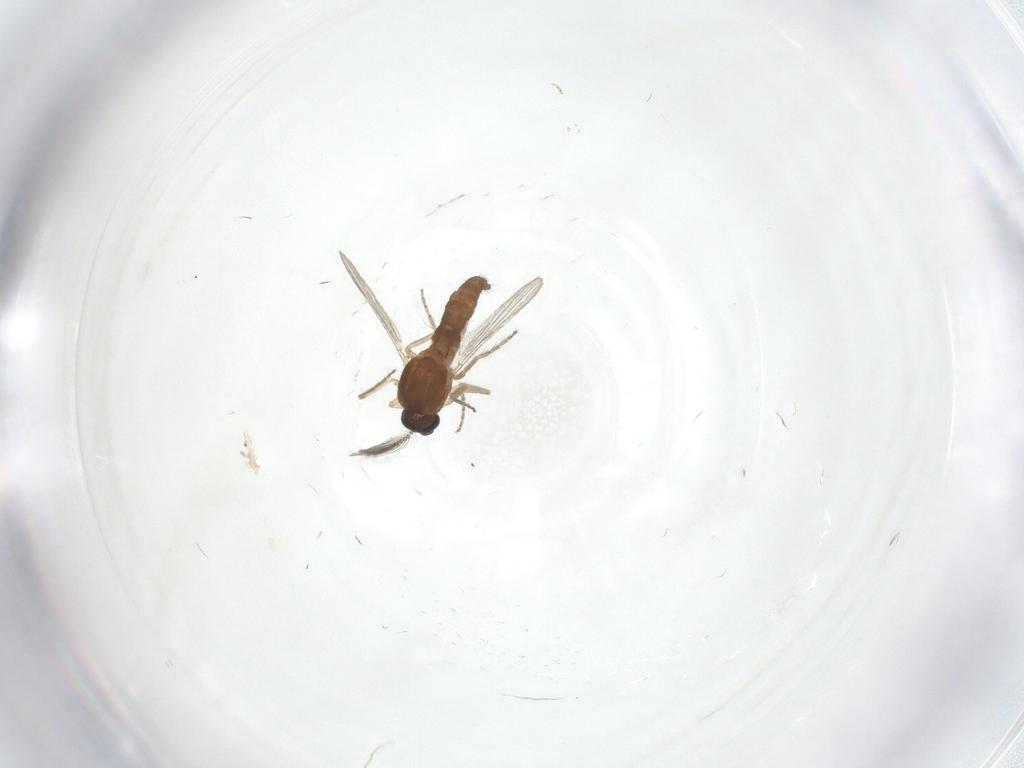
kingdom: Animalia
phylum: Arthropoda
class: Insecta
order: Diptera
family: Ceratopogonidae
